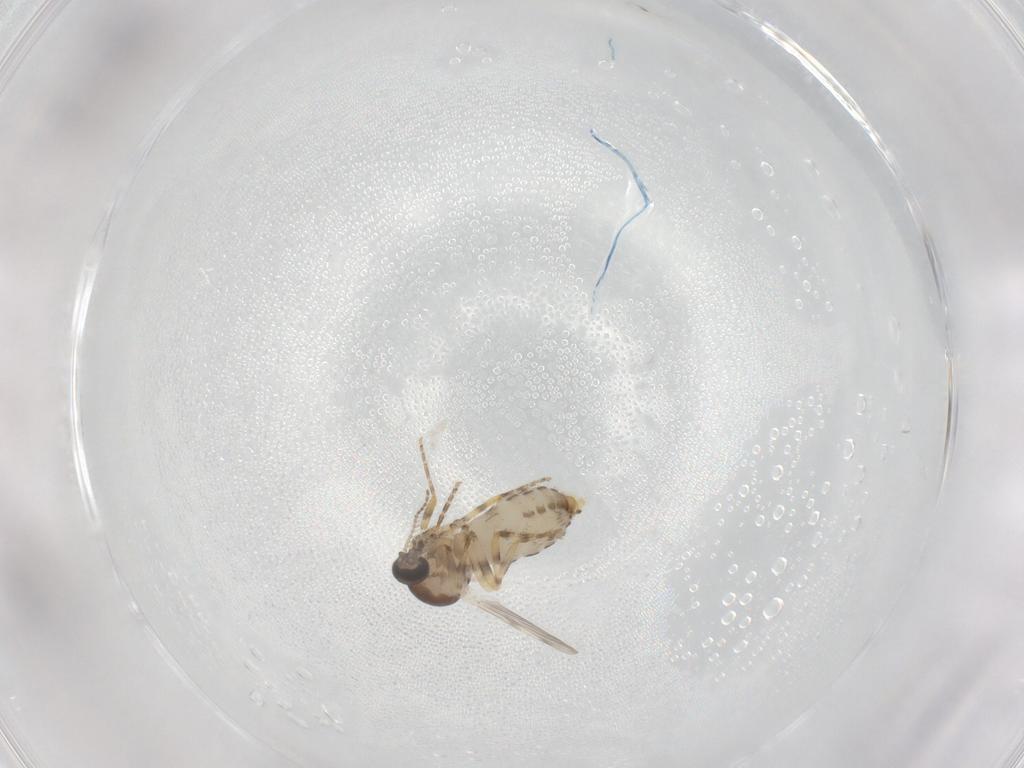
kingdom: Animalia
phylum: Arthropoda
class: Insecta
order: Diptera
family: Ceratopogonidae
